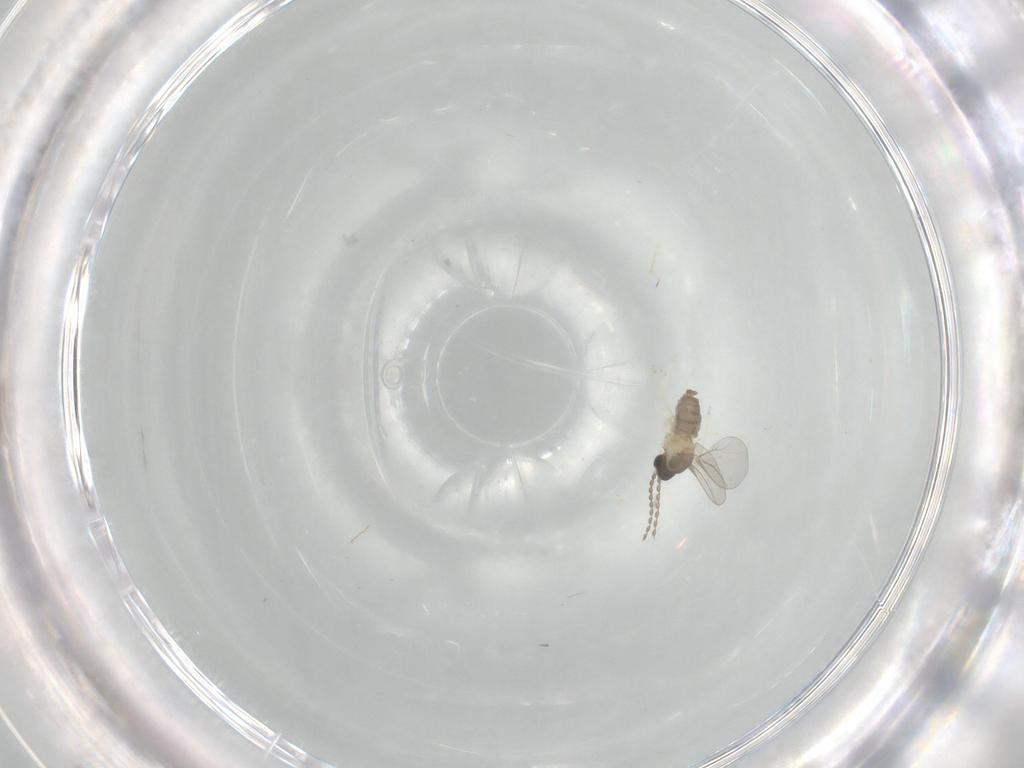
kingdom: Animalia
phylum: Arthropoda
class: Insecta
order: Diptera
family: Cecidomyiidae
